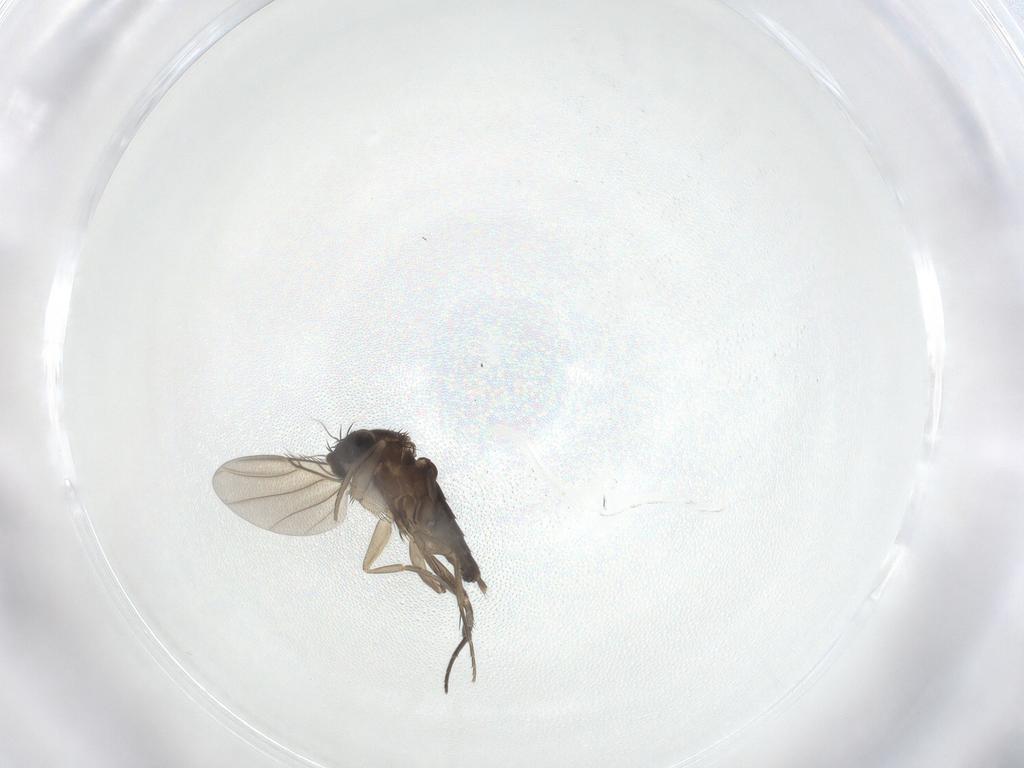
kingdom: Animalia
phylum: Arthropoda
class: Insecta
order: Diptera
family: Phoridae
